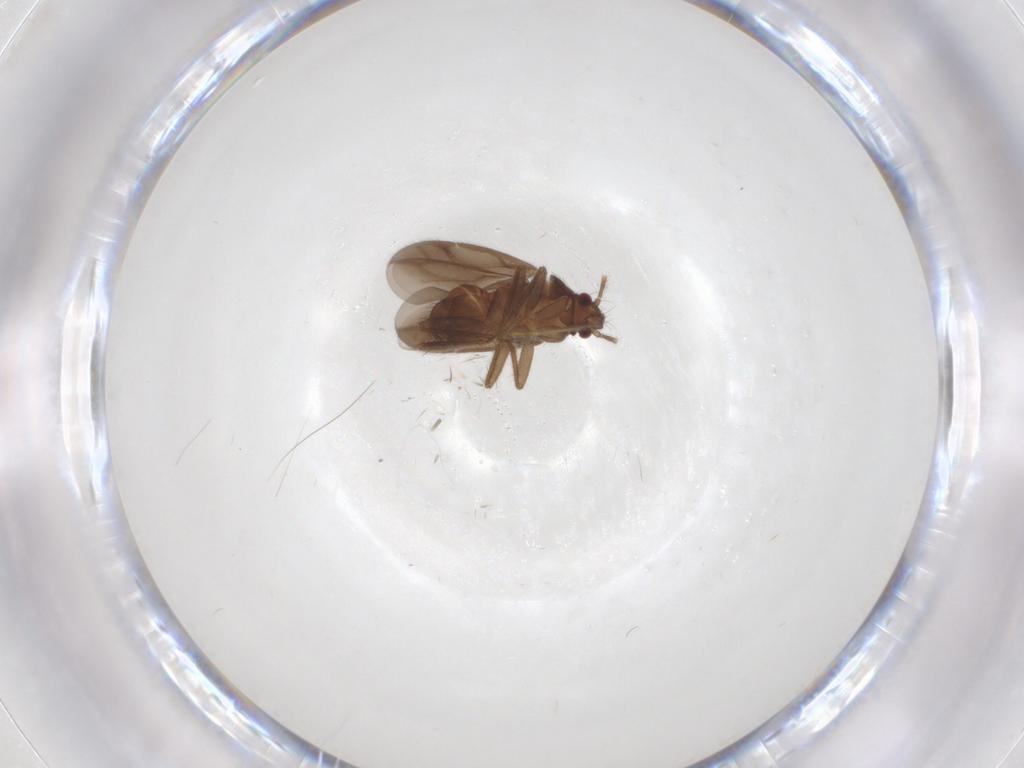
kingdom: Animalia
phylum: Arthropoda
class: Insecta
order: Hemiptera
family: Ceratocombidae
